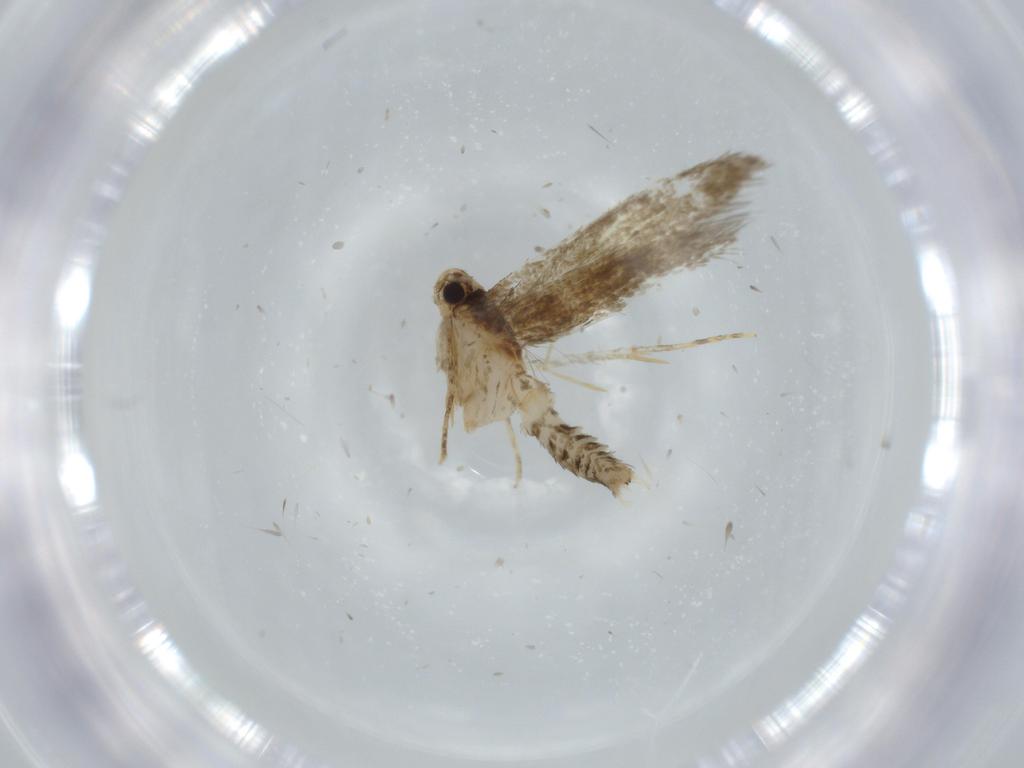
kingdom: Animalia
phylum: Arthropoda
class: Insecta
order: Lepidoptera
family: Tineidae
